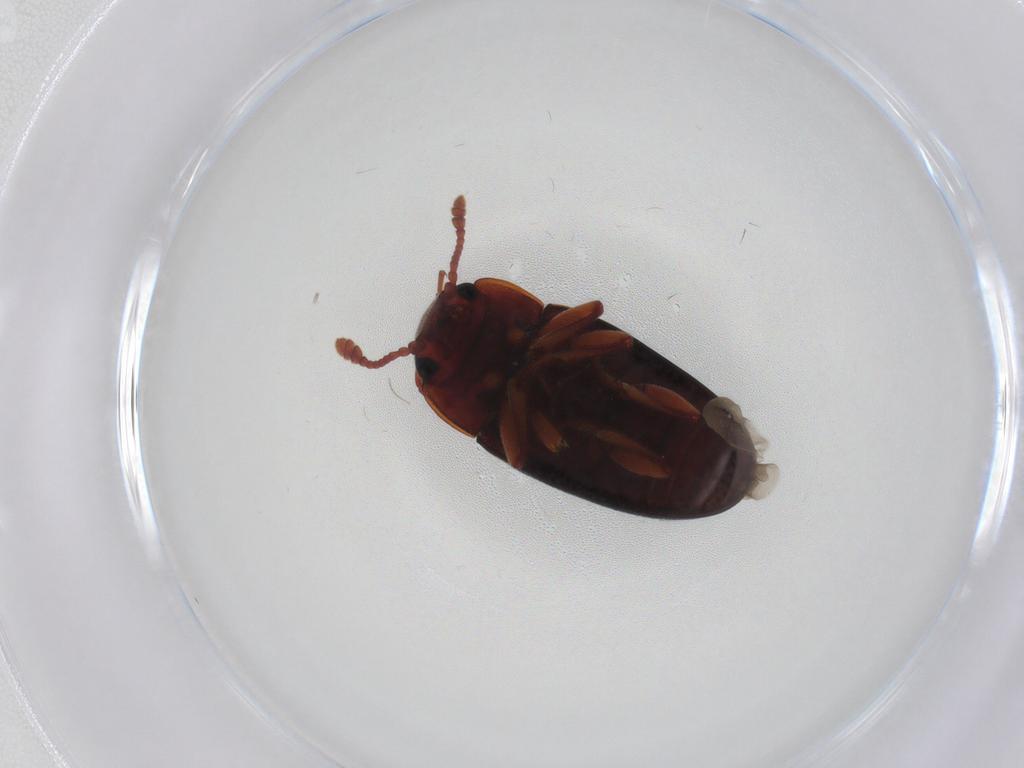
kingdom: Animalia
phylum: Arthropoda
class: Insecta
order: Coleoptera
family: Erotylidae
